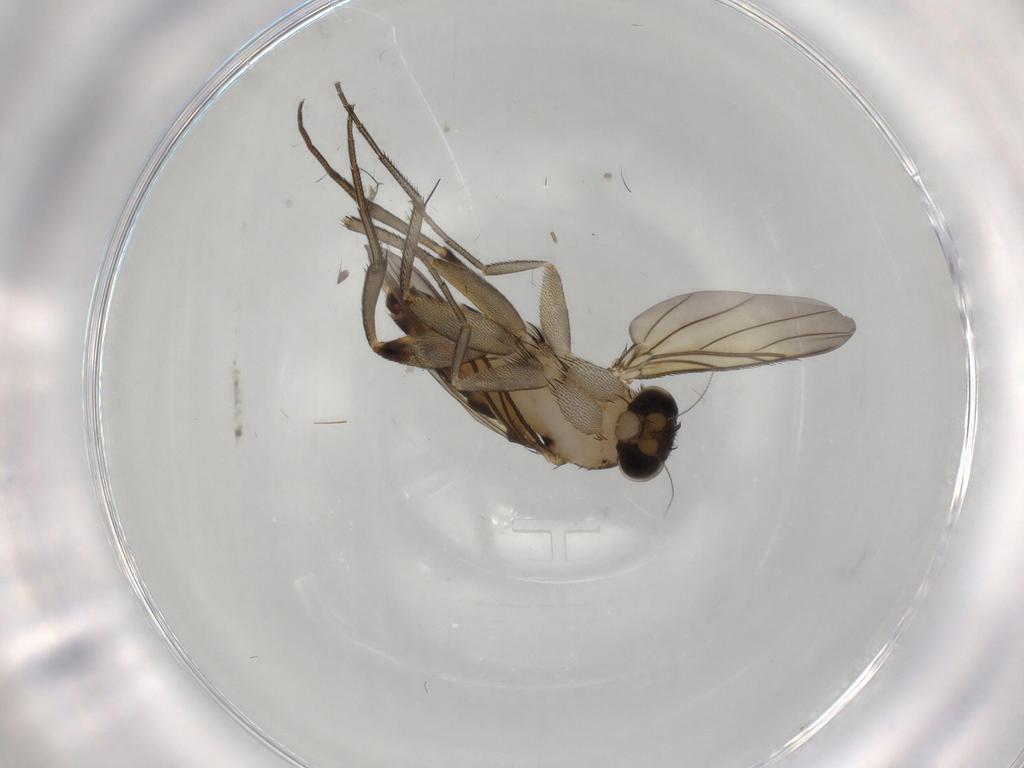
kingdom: Animalia
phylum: Arthropoda
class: Insecta
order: Diptera
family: Phoridae
